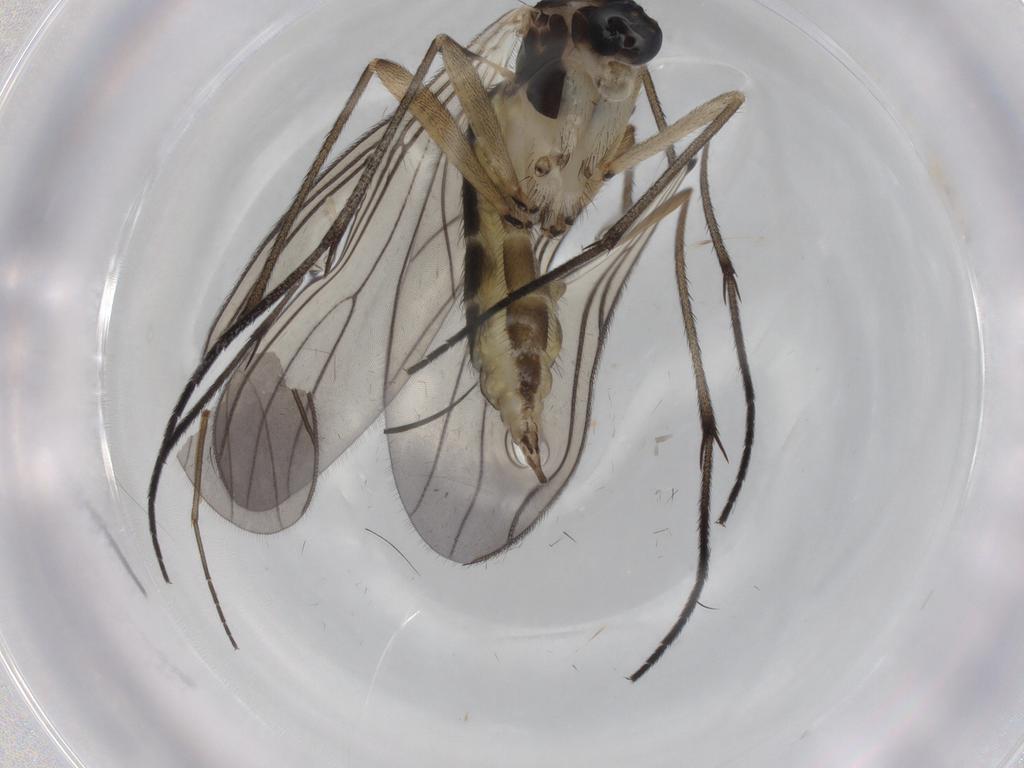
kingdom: Animalia
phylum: Arthropoda
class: Insecta
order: Diptera
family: Sciaridae
